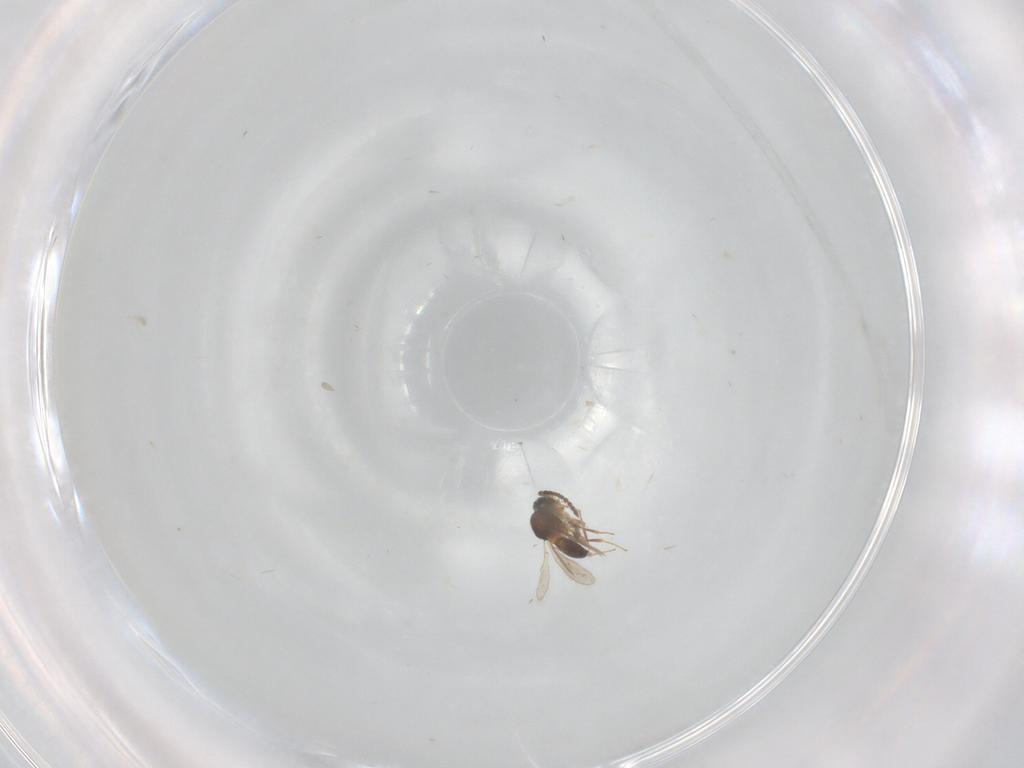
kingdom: Animalia
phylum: Arthropoda
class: Insecta
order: Hymenoptera
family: Scelionidae
